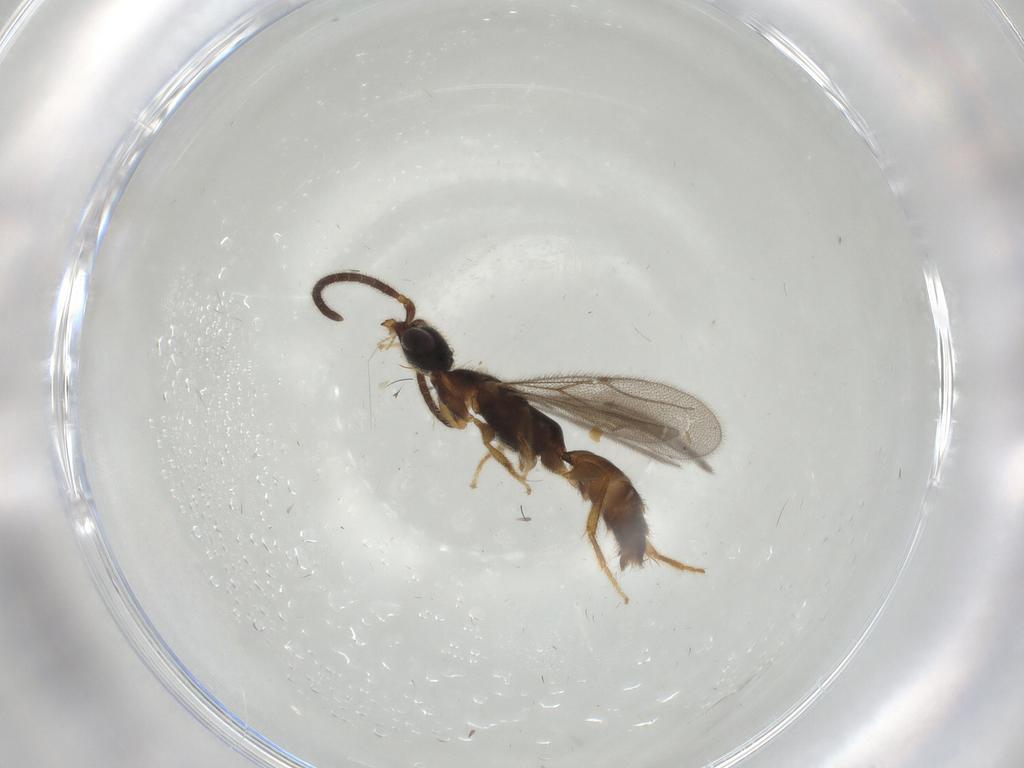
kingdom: Animalia
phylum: Arthropoda
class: Insecta
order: Hymenoptera
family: Bethylidae
